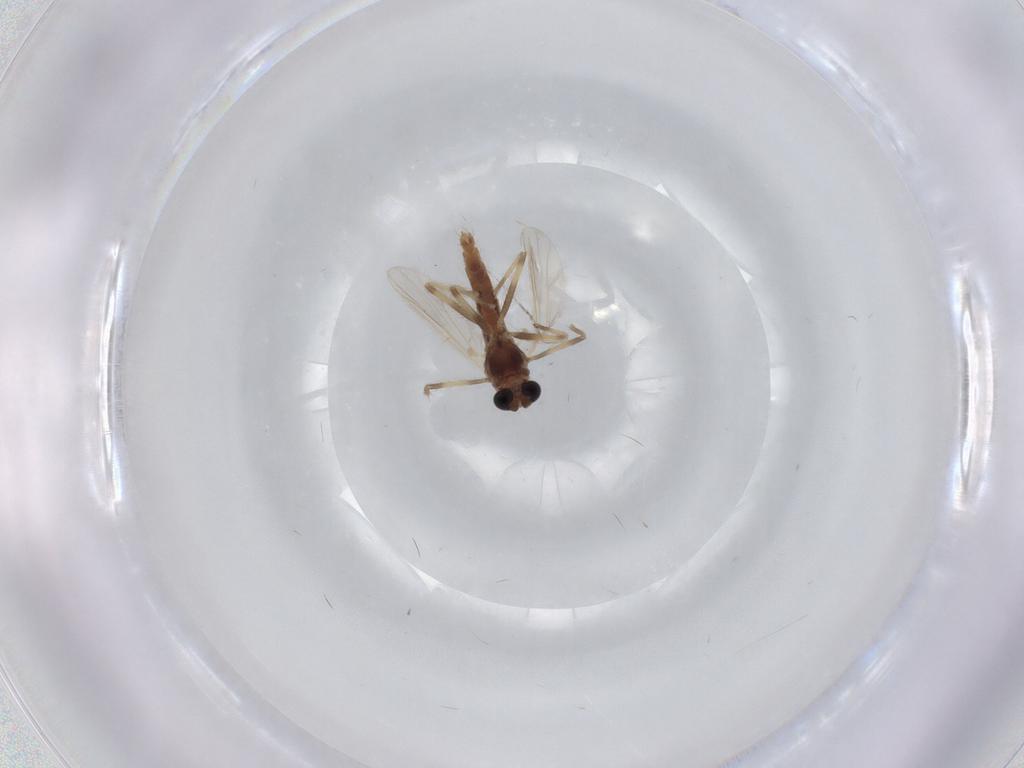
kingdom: Animalia
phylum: Arthropoda
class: Insecta
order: Diptera
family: Chironomidae
